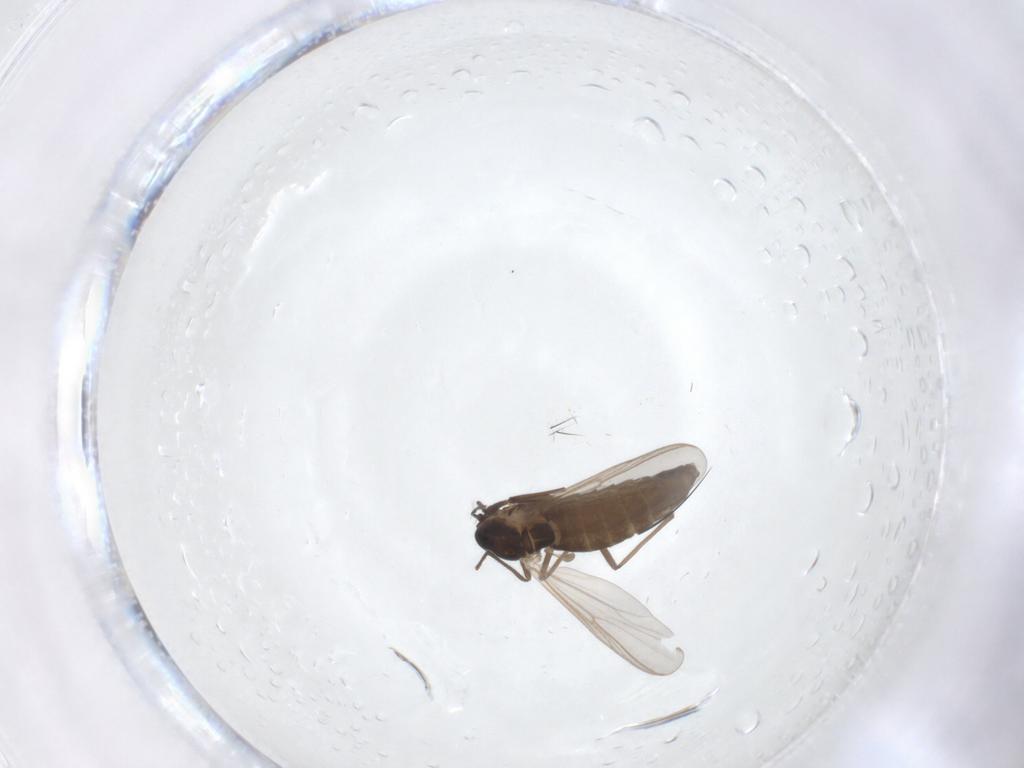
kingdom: Animalia
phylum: Arthropoda
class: Insecta
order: Diptera
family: Chironomidae
